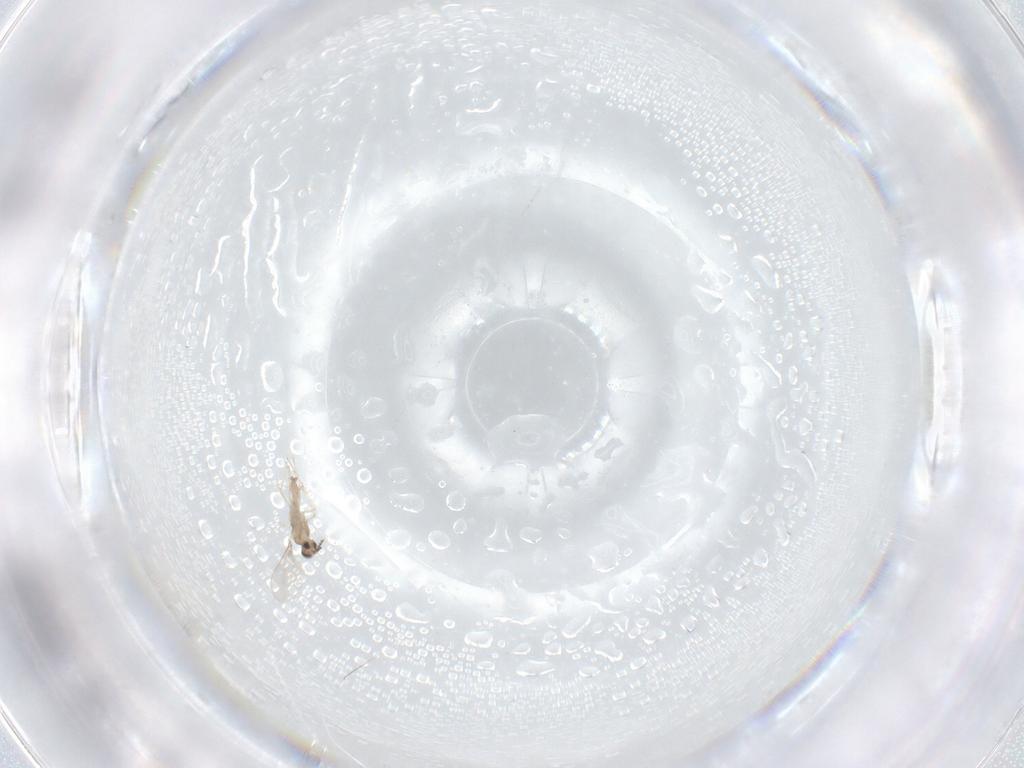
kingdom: Animalia
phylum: Arthropoda
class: Insecta
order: Diptera
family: Cecidomyiidae
